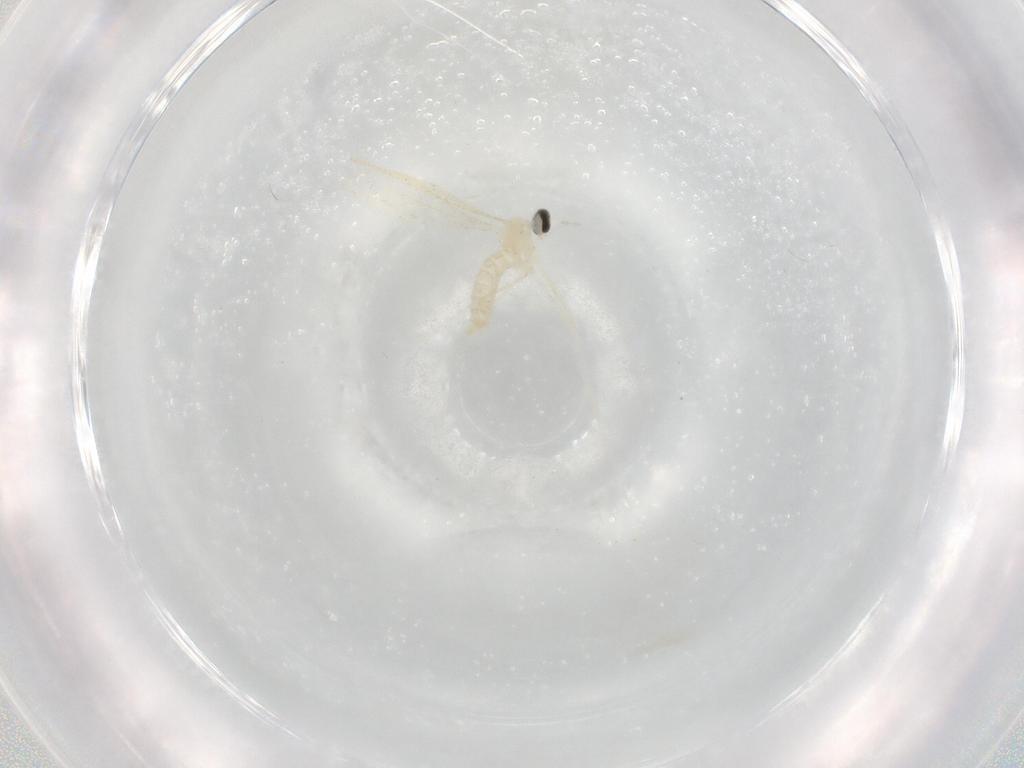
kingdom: Animalia
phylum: Arthropoda
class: Insecta
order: Diptera
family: Cecidomyiidae
